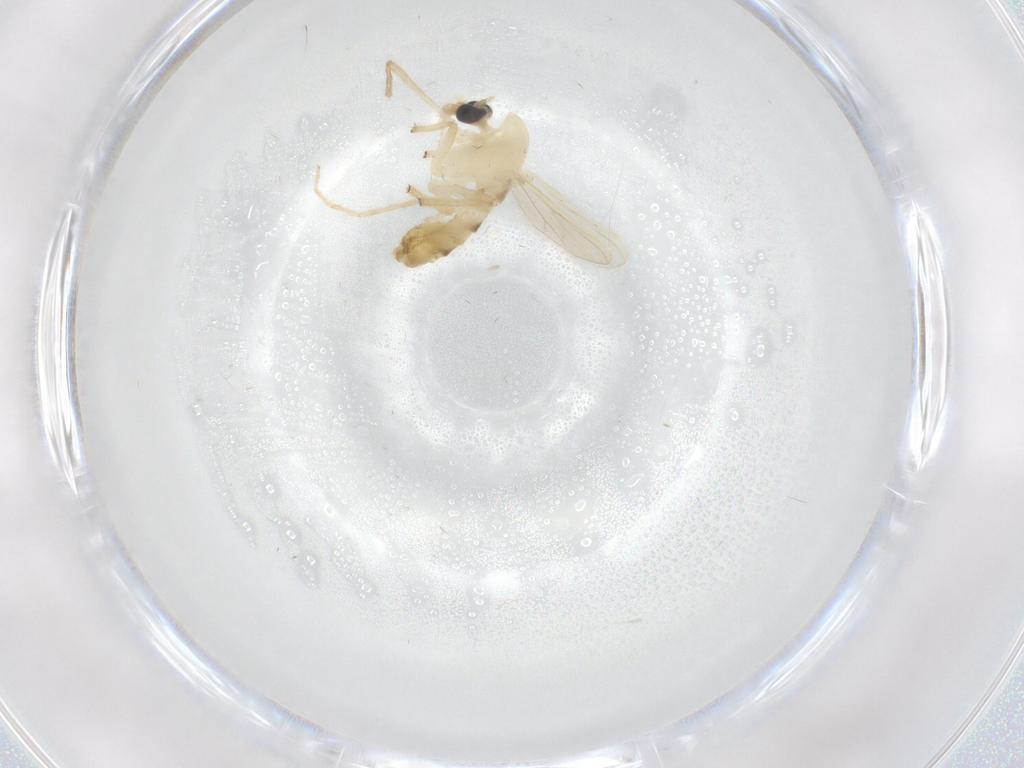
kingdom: Animalia
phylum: Arthropoda
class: Insecta
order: Diptera
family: Chironomidae
